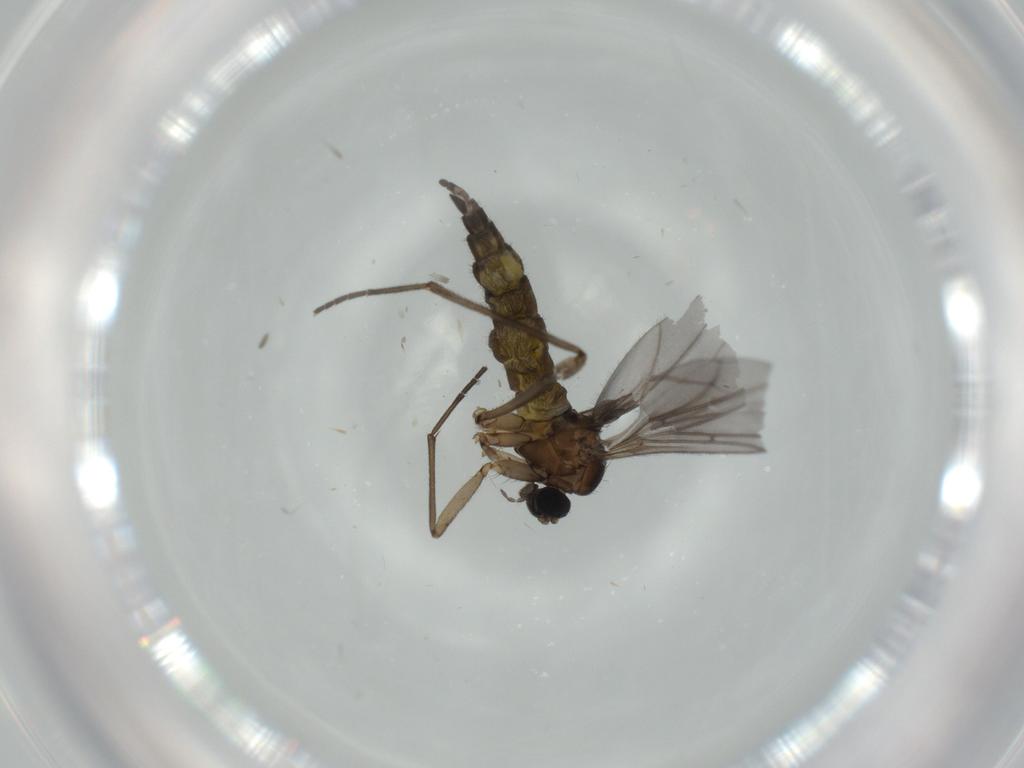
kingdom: Animalia
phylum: Arthropoda
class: Insecta
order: Diptera
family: Sciaridae
